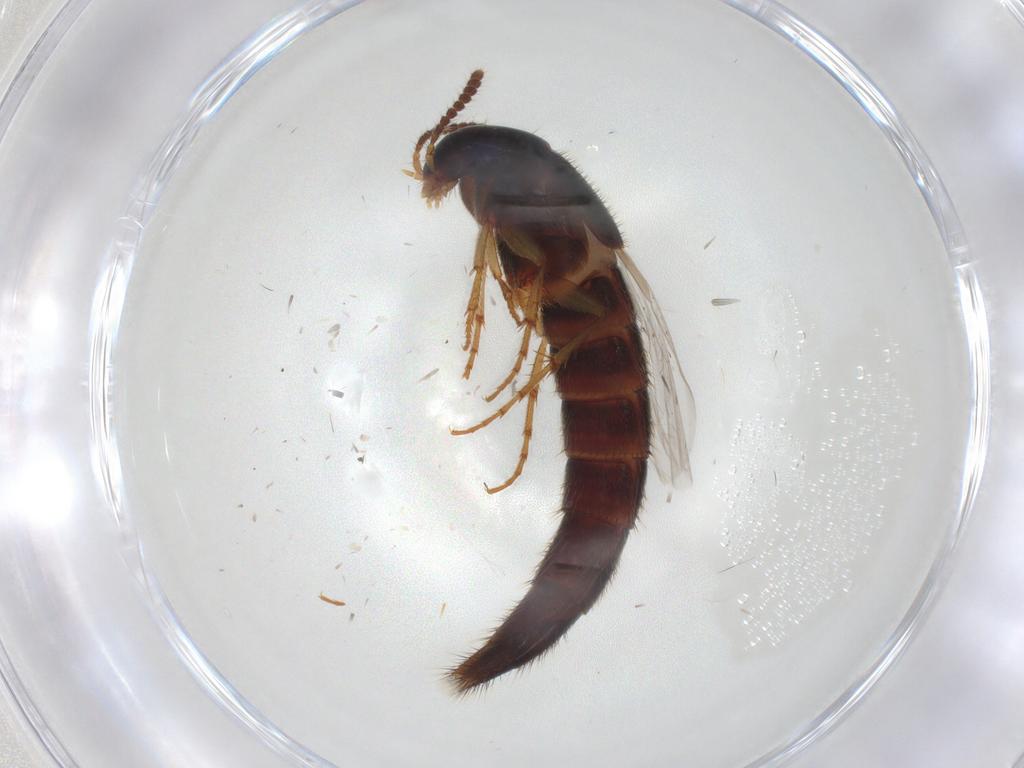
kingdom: Animalia
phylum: Arthropoda
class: Insecta
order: Coleoptera
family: Staphylinidae
